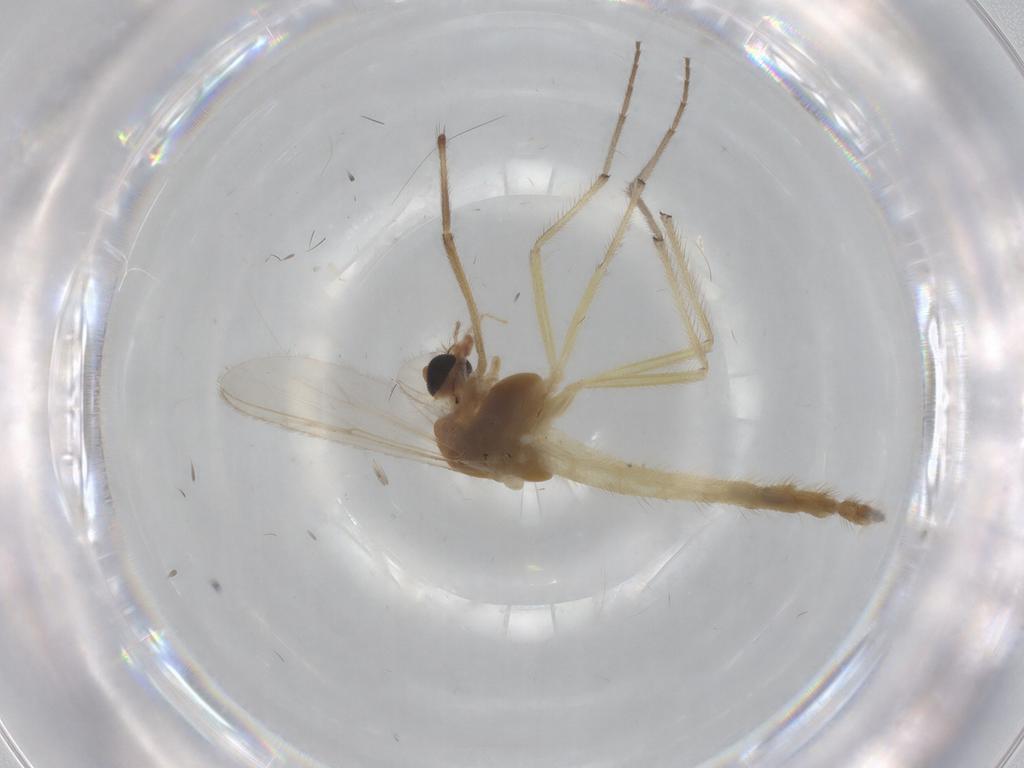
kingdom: Animalia
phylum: Arthropoda
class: Insecta
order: Diptera
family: Chironomidae
